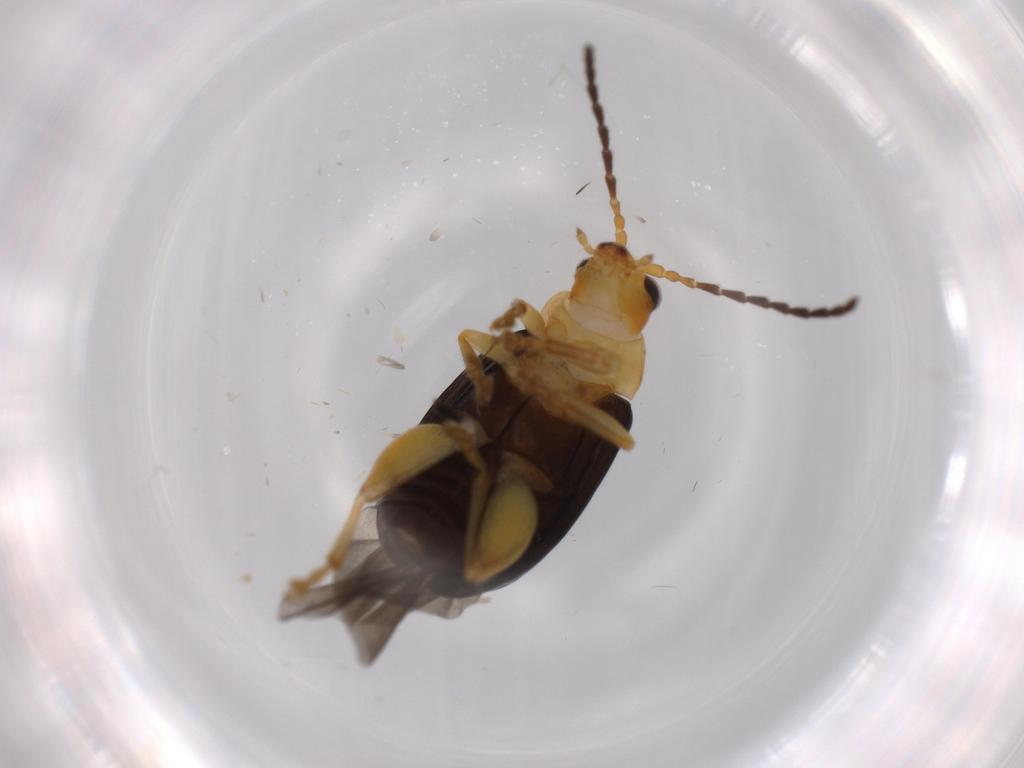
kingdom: Animalia
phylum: Arthropoda
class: Insecta
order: Coleoptera
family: Chrysomelidae
